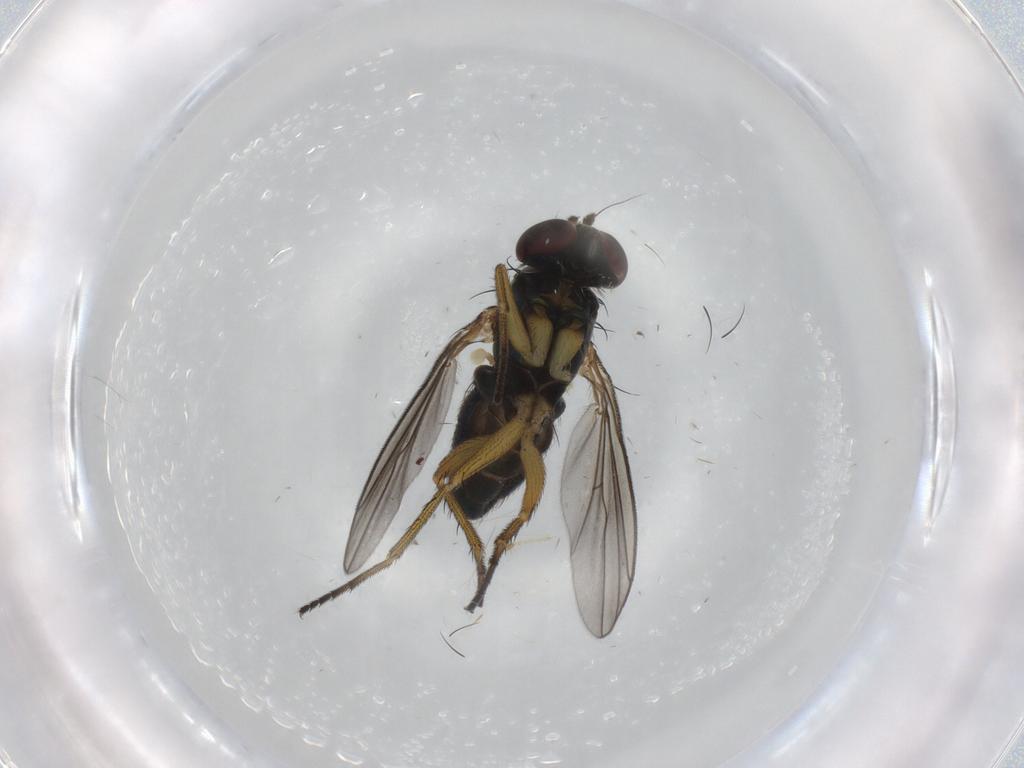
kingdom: Animalia
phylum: Arthropoda
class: Insecta
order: Diptera
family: Dolichopodidae
